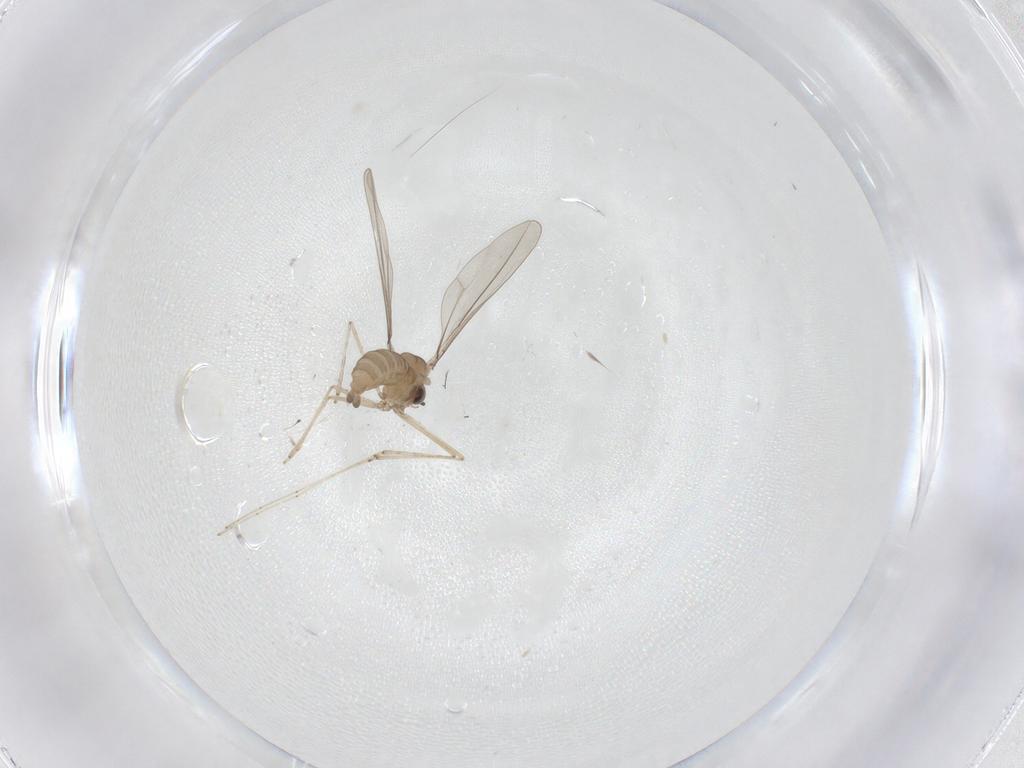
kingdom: Animalia
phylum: Arthropoda
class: Insecta
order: Diptera
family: Cecidomyiidae
